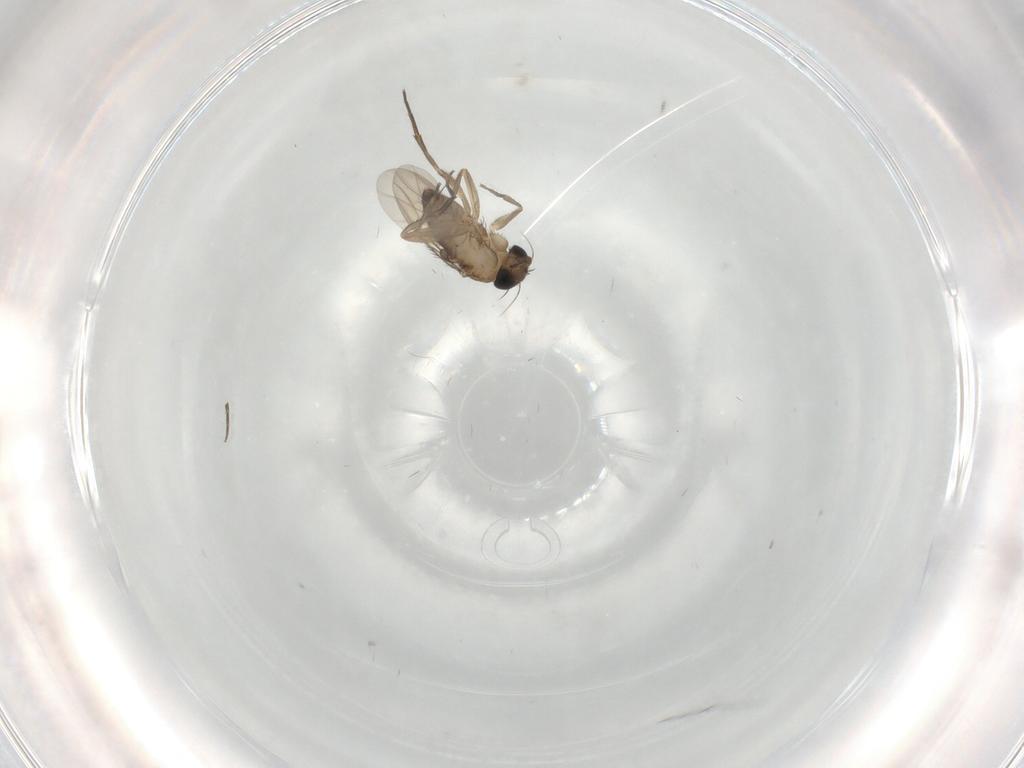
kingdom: Animalia
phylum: Arthropoda
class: Insecta
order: Diptera
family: Phoridae
